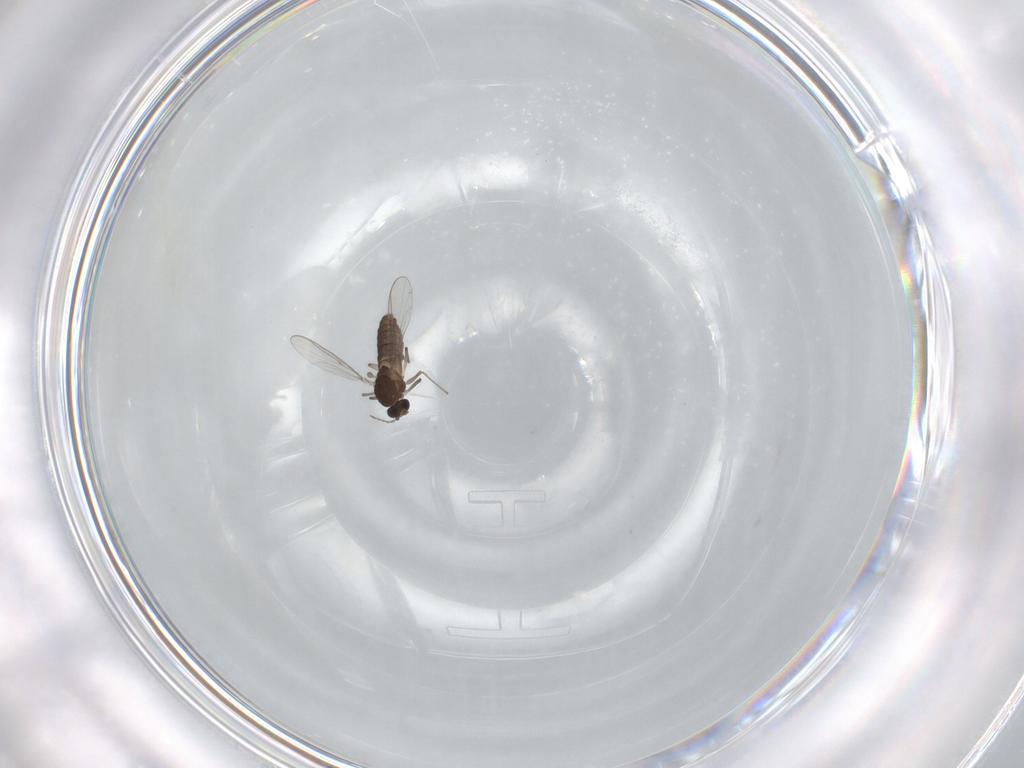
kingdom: Animalia
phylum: Arthropoda
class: Insecta
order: Diptera
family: Chironomidae
